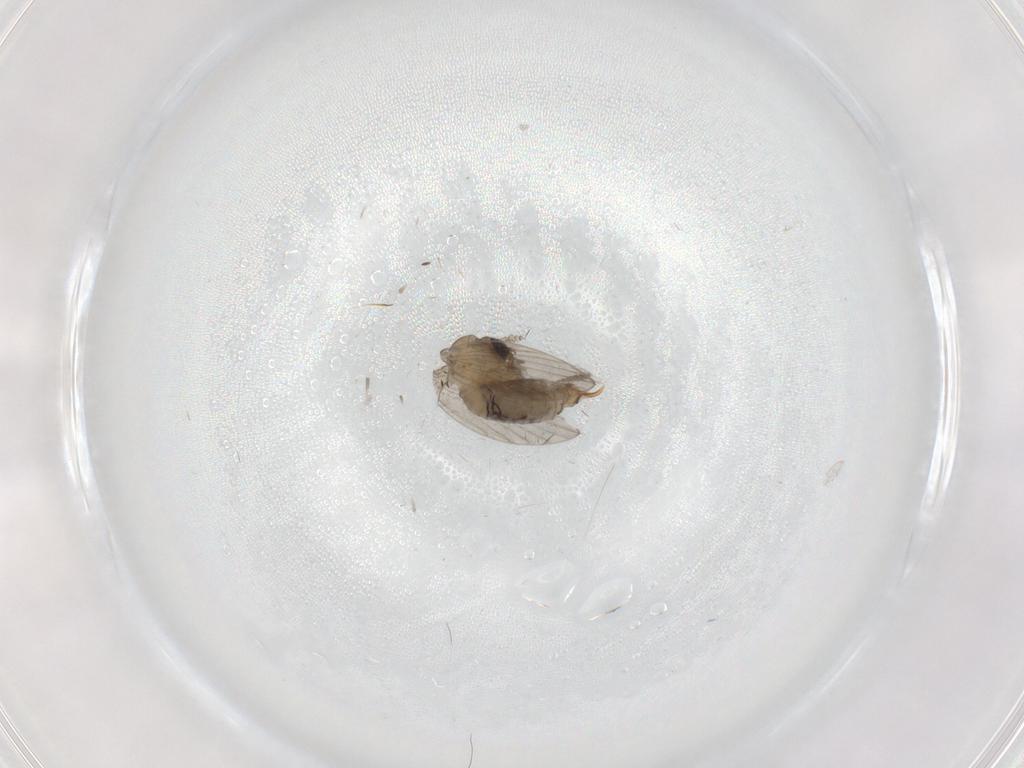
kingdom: Animalia
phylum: Arthropoda
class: Insecta
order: Diptera
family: Psychodidae
